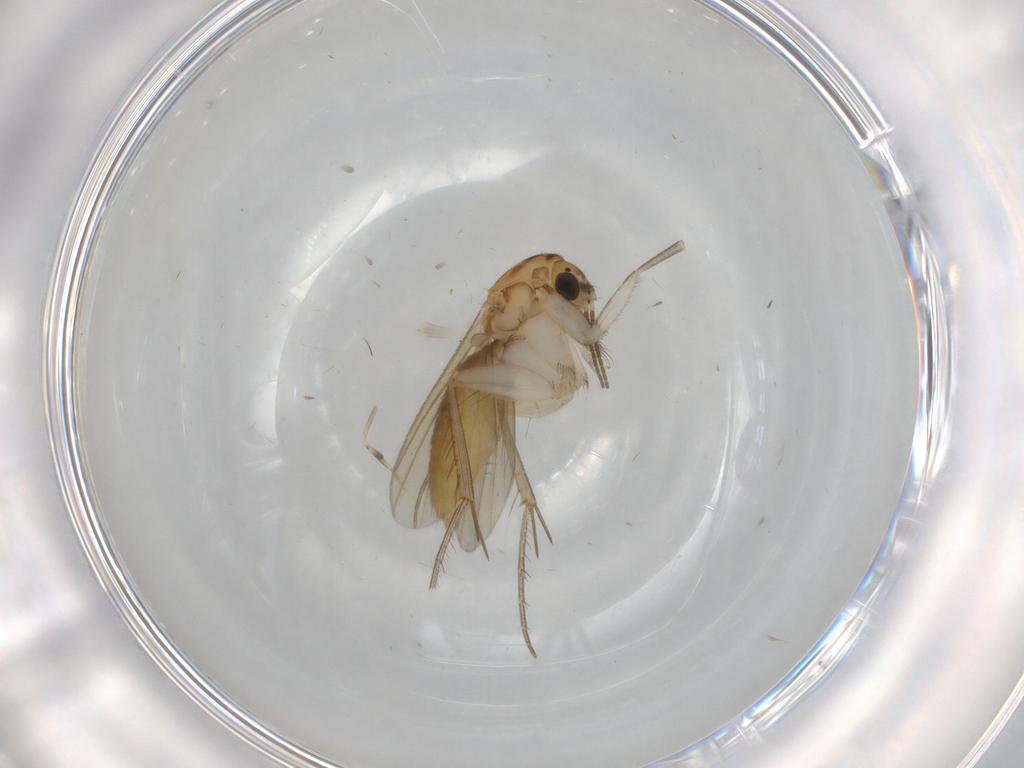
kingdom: Animalia
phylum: Arthropoda
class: Insecta
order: Diptera
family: Mycetophilidae
